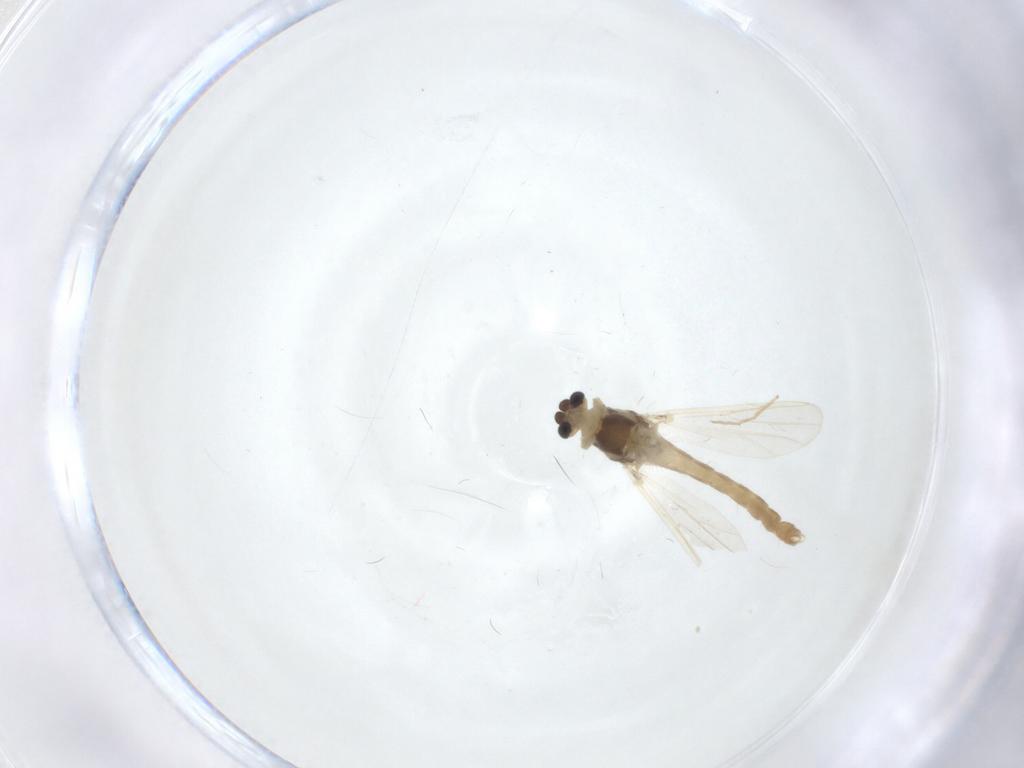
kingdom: Animalia
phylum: Arthropoda
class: Insecta
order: Diptera
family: Chironomidae
